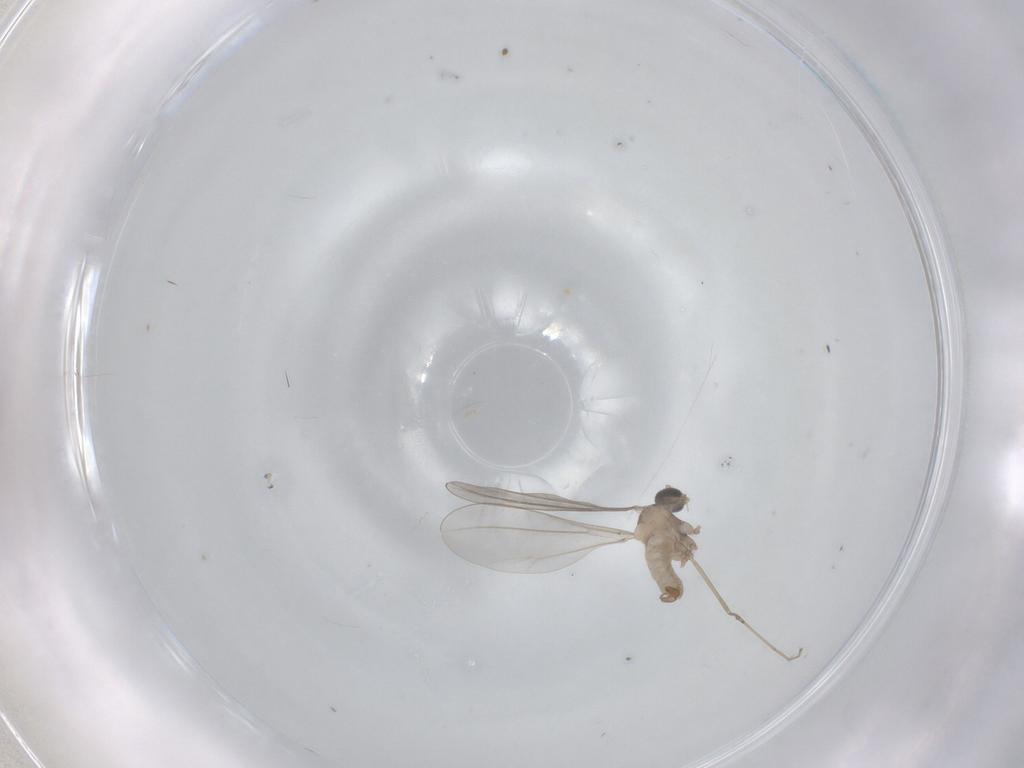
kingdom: Animalia
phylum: Arthropoda
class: Insecta
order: Diptera
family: Cecidomyiidae
